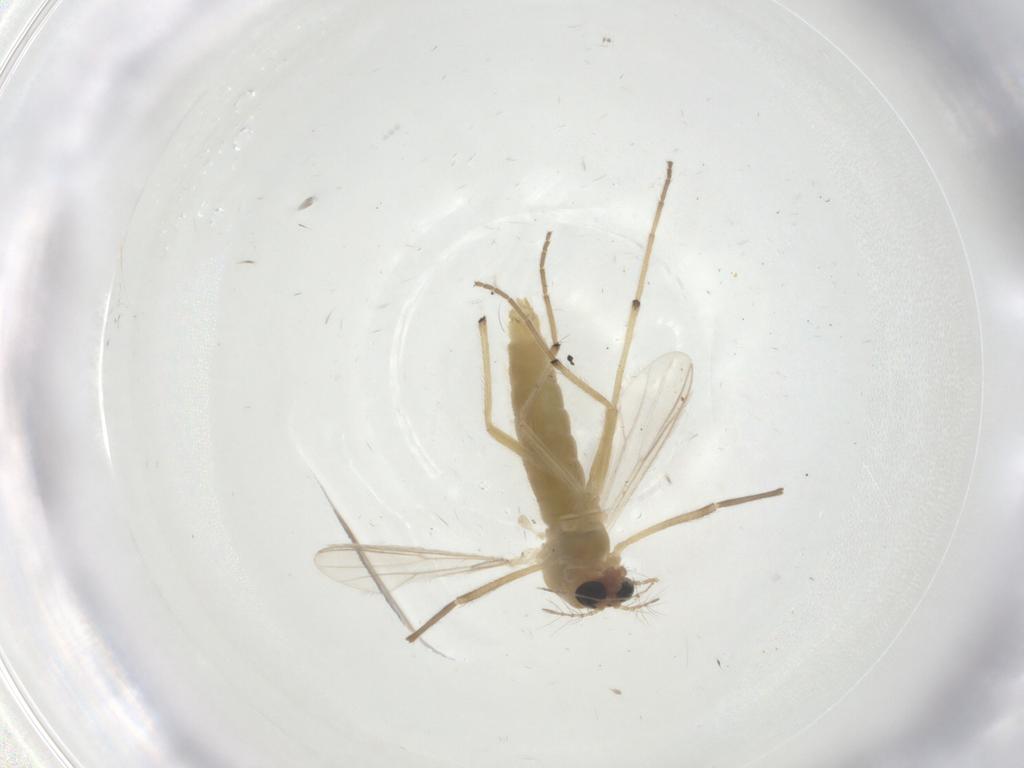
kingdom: Animalia
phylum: Arthropoda
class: Insecta
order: Diptera
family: Chironomidae
